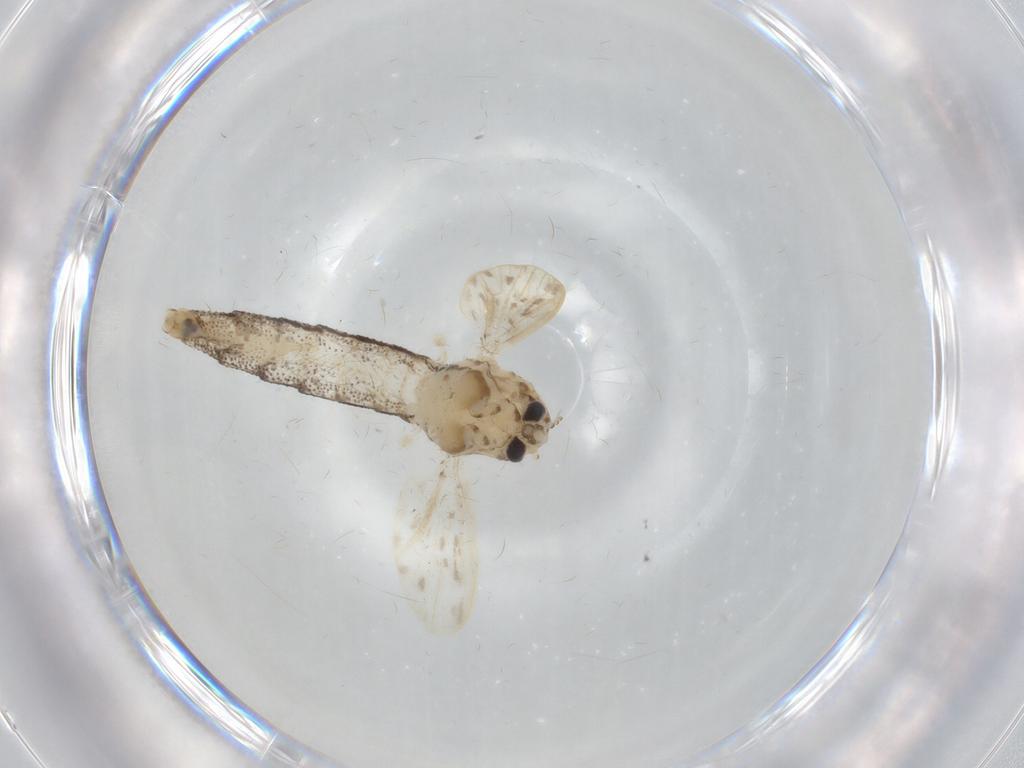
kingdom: Animalia
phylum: Arthropoda
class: Insecta
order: Diptera
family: Chaoboridae
